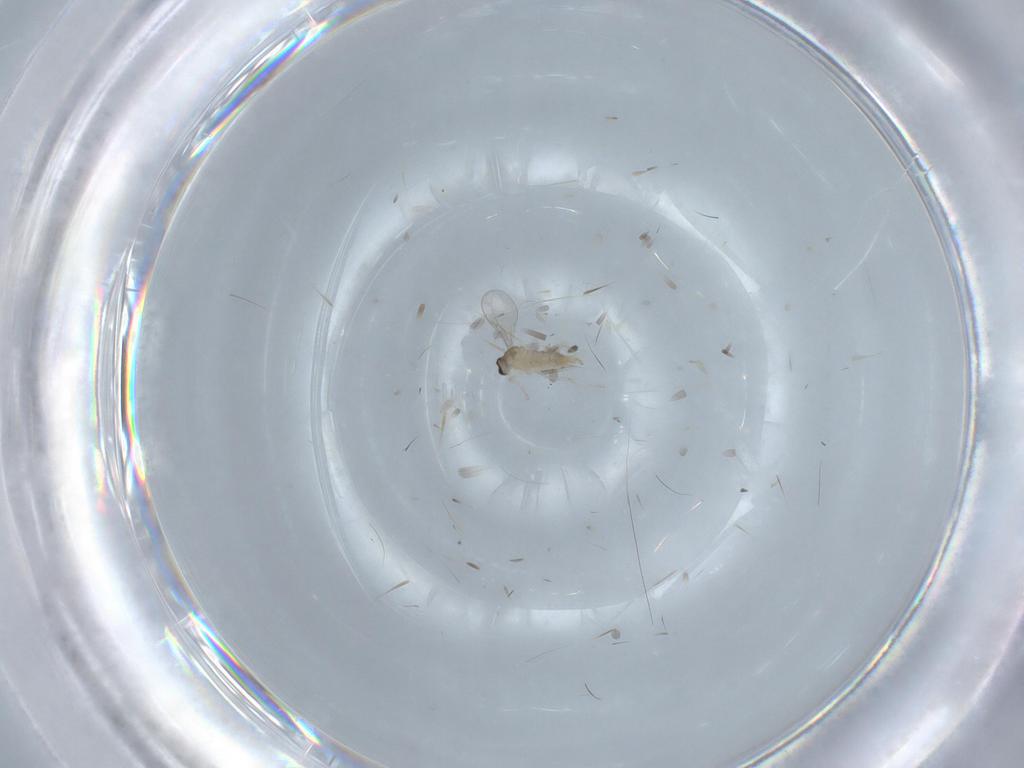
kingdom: Animalia
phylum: Arthropoda
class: Insecta
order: Diptera
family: Cecidomyiidae
